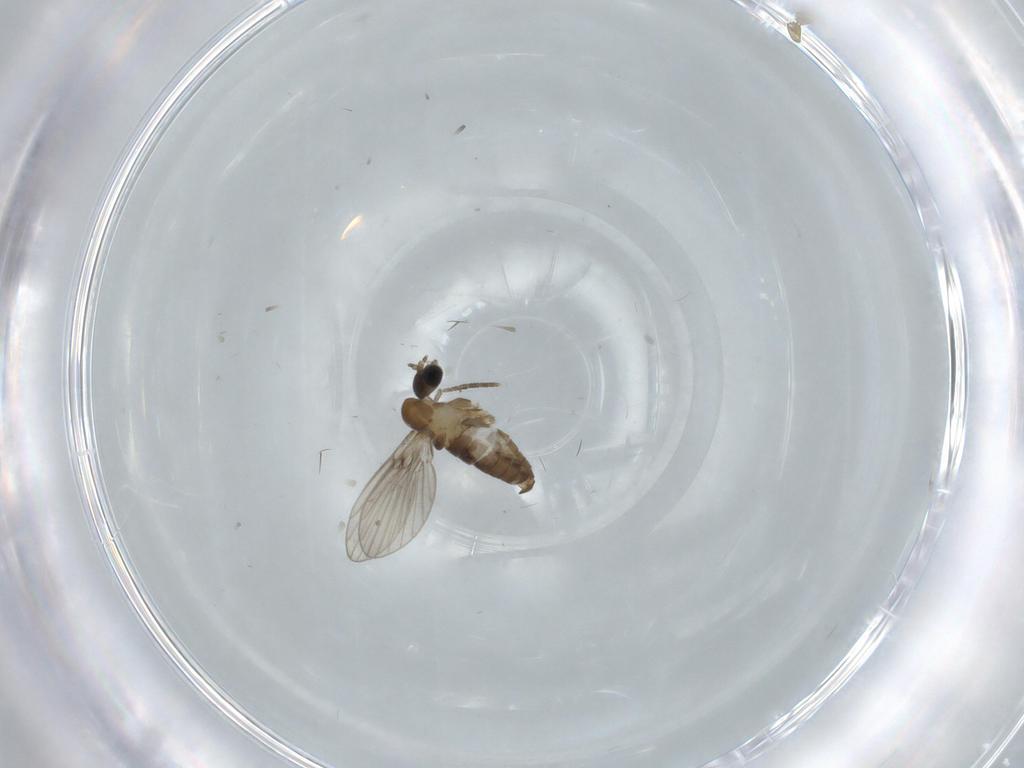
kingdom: Animalia
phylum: Arthropoda
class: Insecta
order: Diptera
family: Chironomidae
